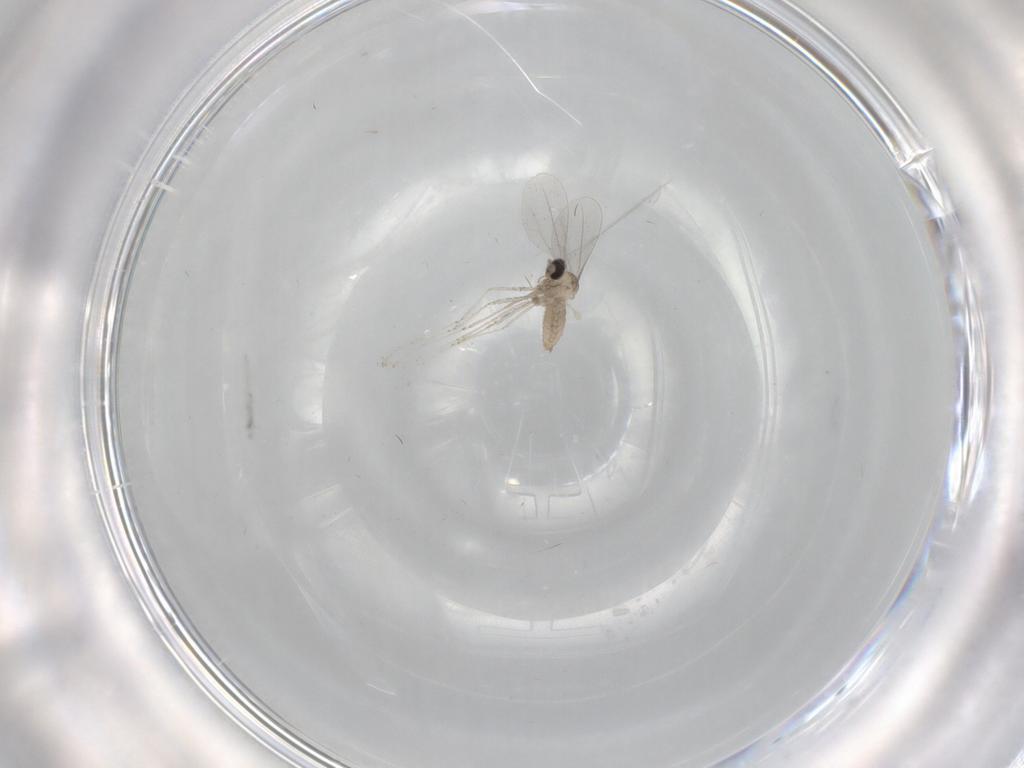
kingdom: Animalia
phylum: Arthropoda
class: Insecta
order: Diptera
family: Cecidomyiidae
